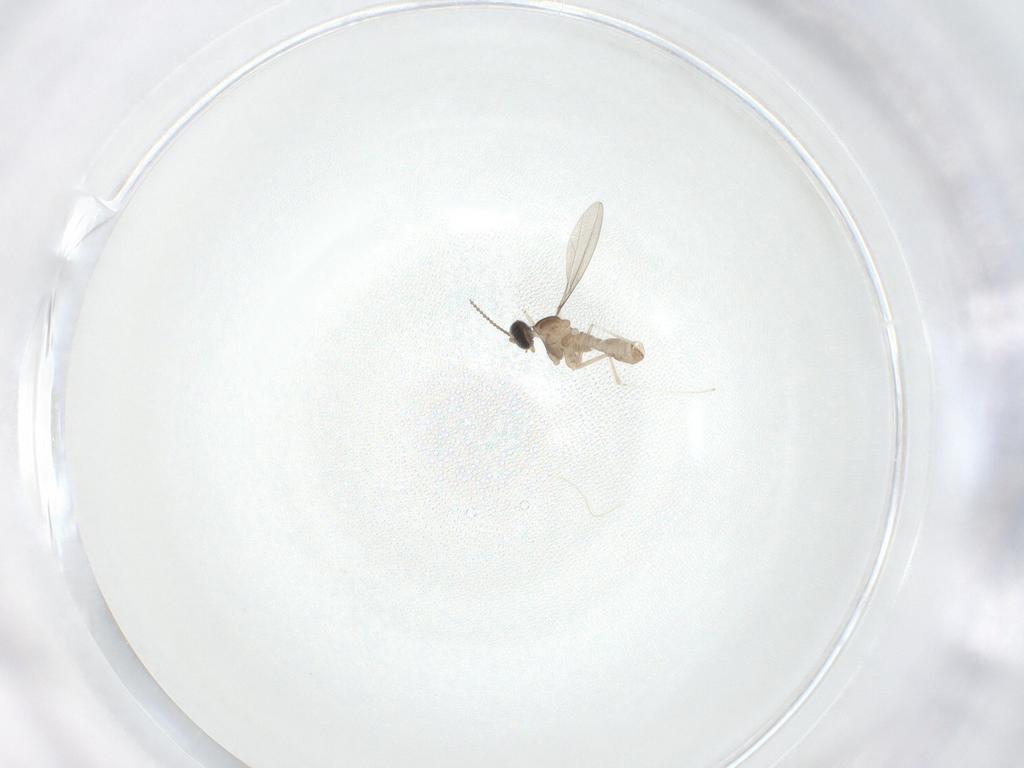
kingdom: Animalia
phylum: Arthropoda
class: Insecta
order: Diptera
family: Cecidomyiidae
